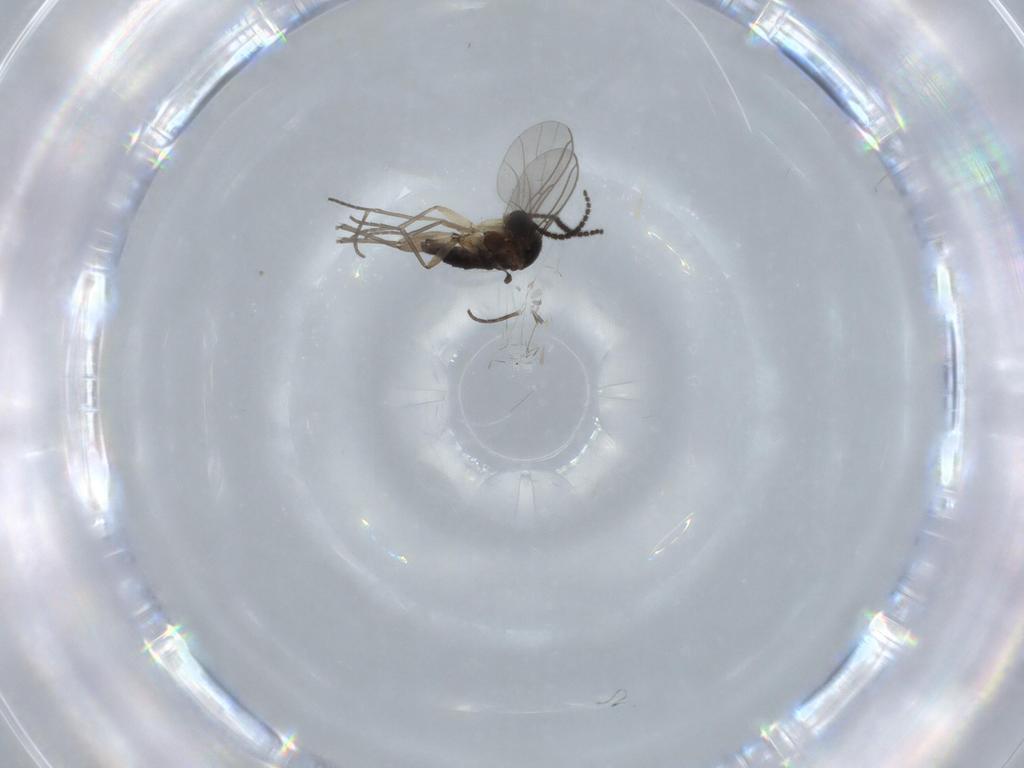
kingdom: Animalia
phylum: Arthropoda
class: Insecta
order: Diptera
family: Sciaridae
